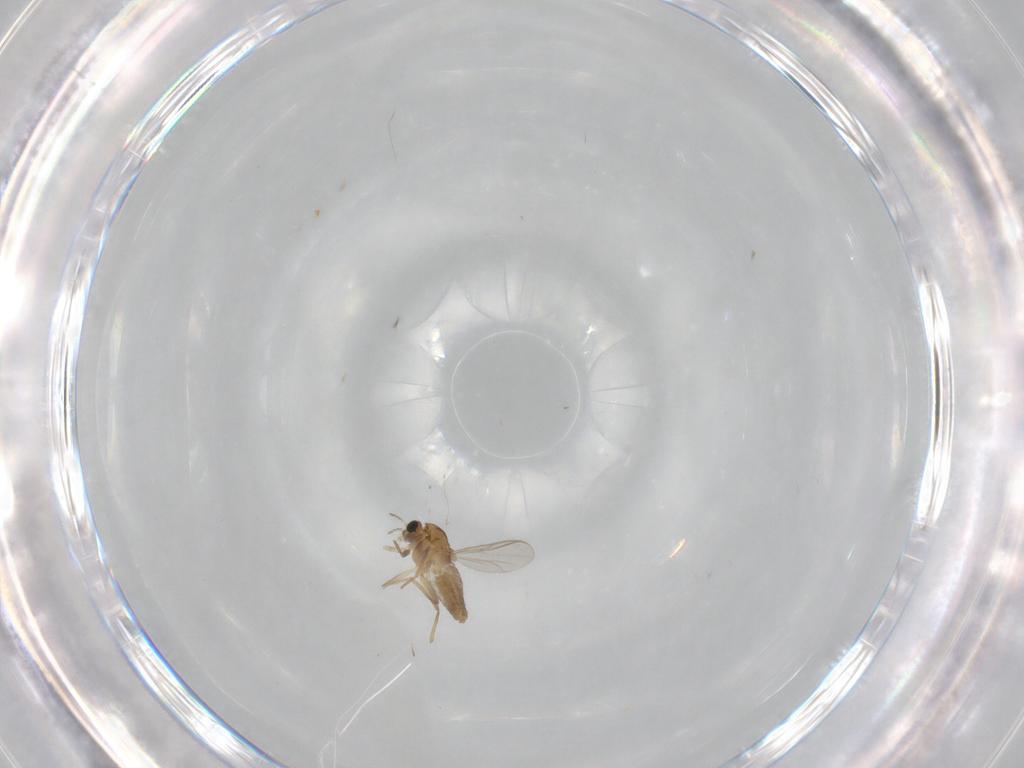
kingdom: Animalia
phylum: Arthropoda
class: Insecta
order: Diptera
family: Chironomidae
